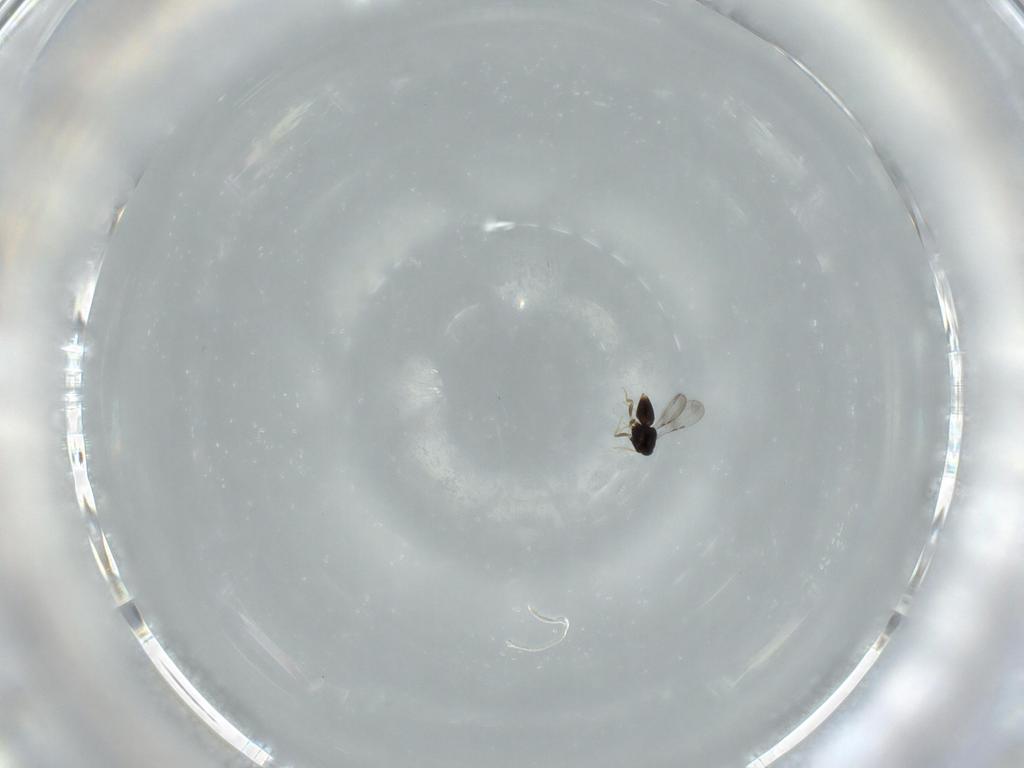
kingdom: Animalia
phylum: Arthropoda
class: Insecta
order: Hymenoptera
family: Trichogrammatidae
